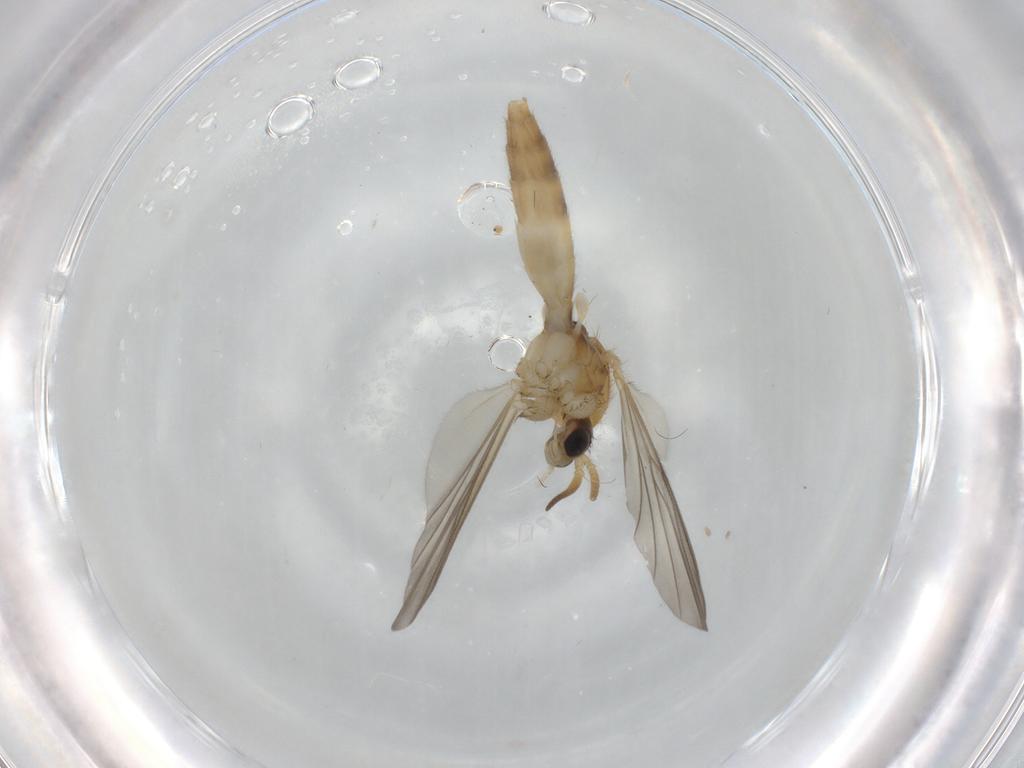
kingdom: Animalia
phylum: Arthropoda
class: Insecta
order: Diptera
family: Mycetophilidae
